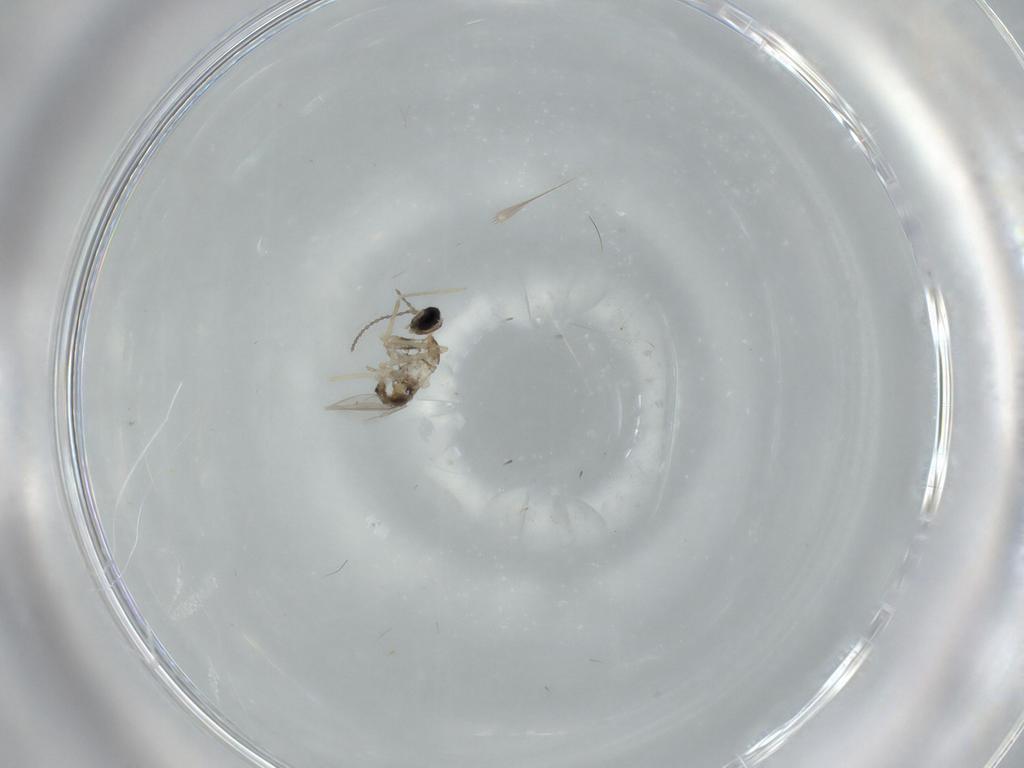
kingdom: Animalia
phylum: Arthropoda
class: Insecta
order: Diptera
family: Cecidomyiidae
